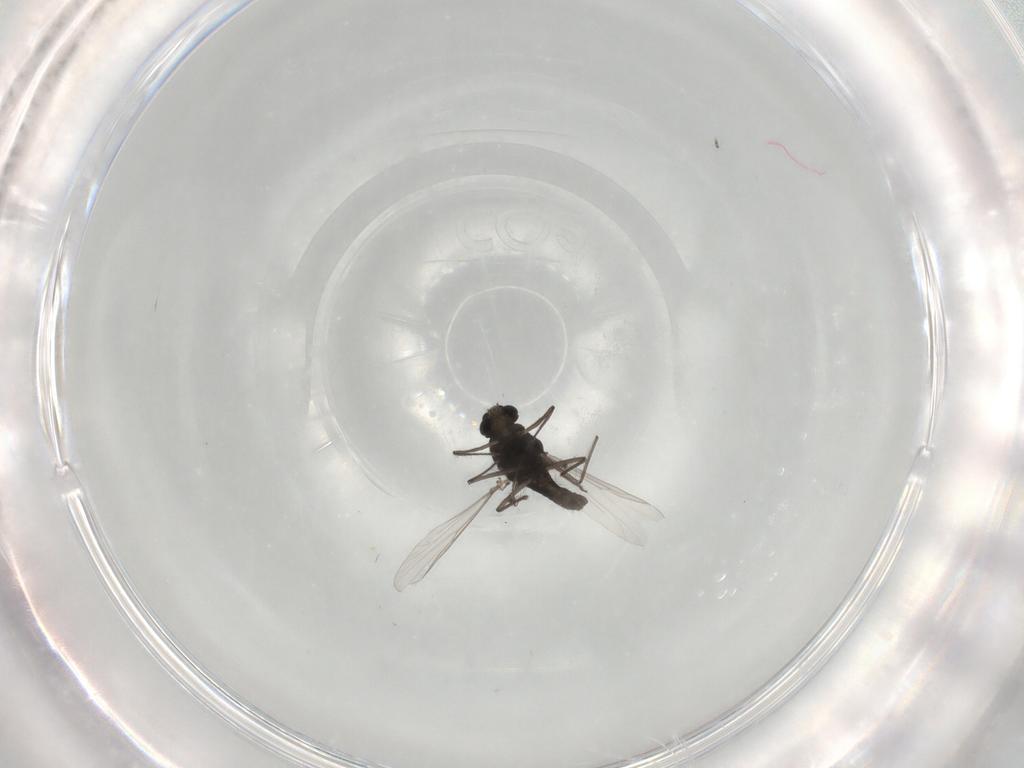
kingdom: Animalia
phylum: Arthropoda
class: Insecta
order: Diptera
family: Chironomidae
